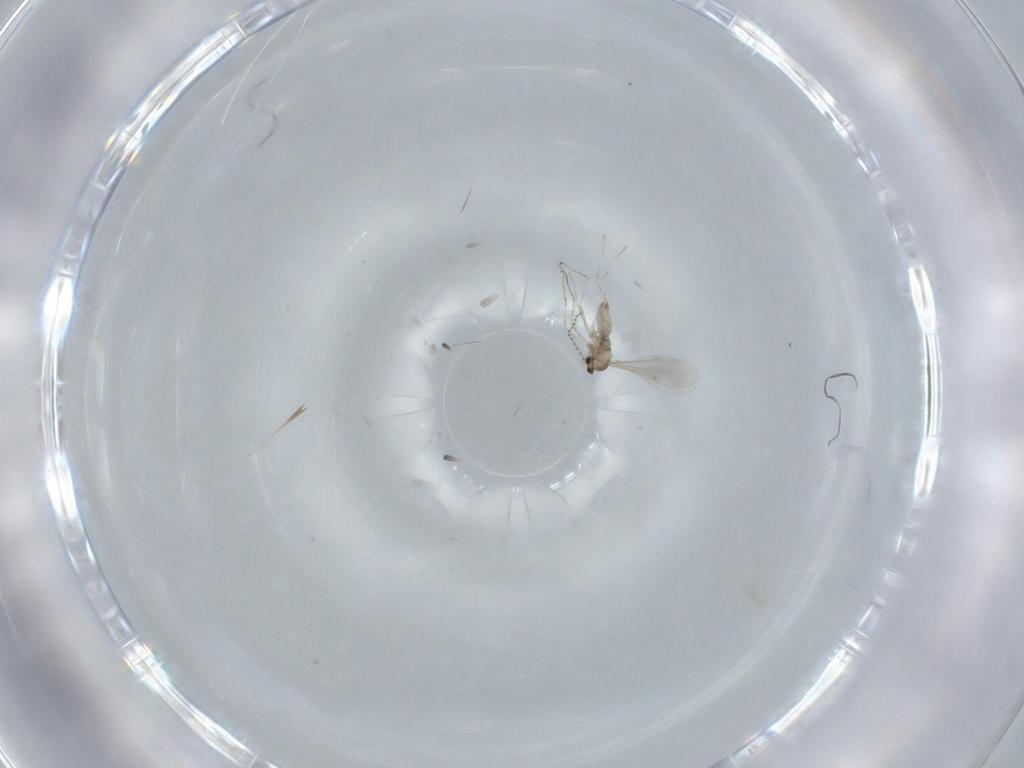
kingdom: Animalia
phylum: Arthropoda
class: Insecta
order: Diptera
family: Cecidomyiidae
